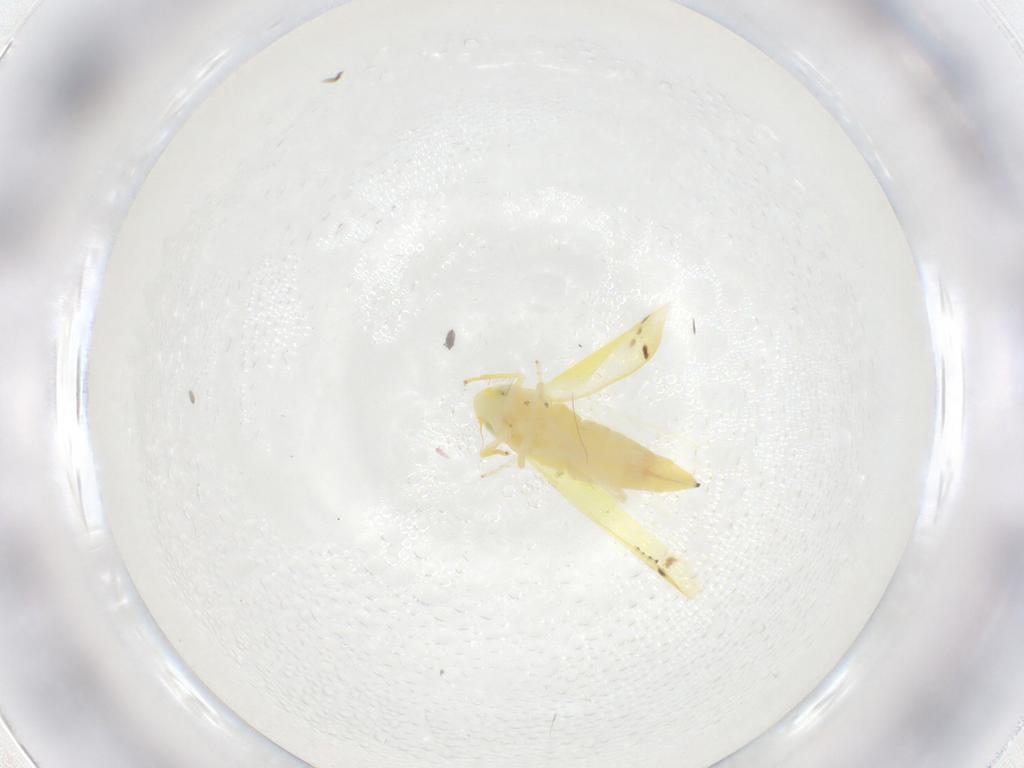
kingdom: Animalia
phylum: Arthropoda
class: Insecta
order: Hemiptera
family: Cicadellidae
